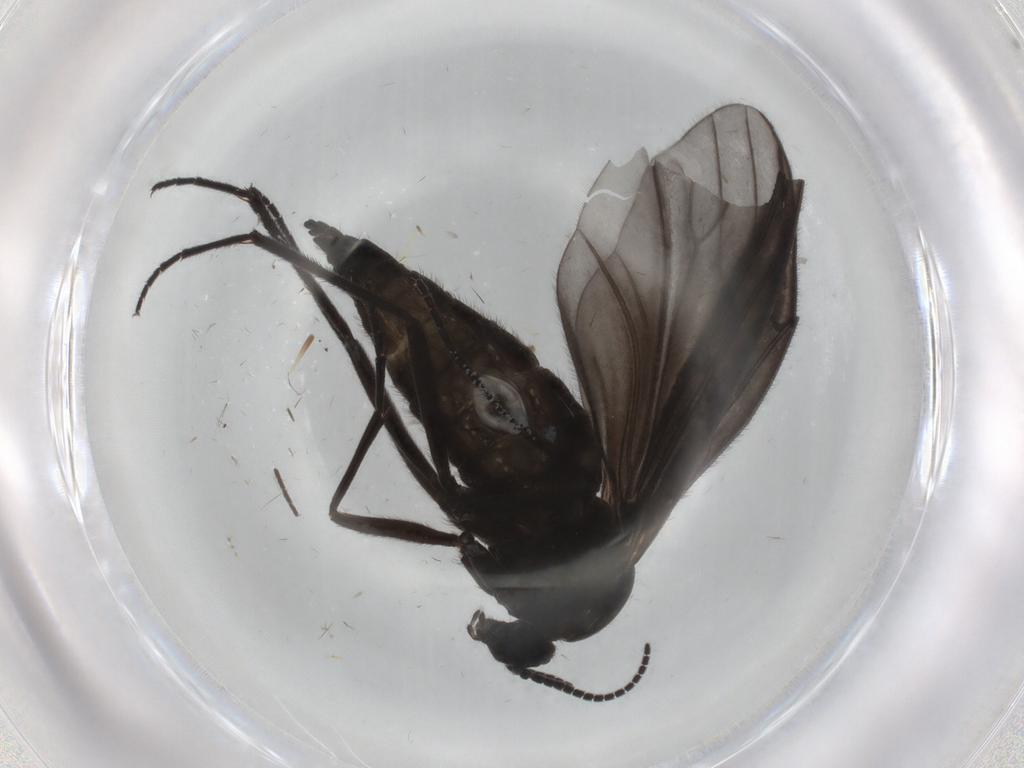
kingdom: Animalia
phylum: Arthropoda
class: Insecta
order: Diptera
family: Sciaridae
